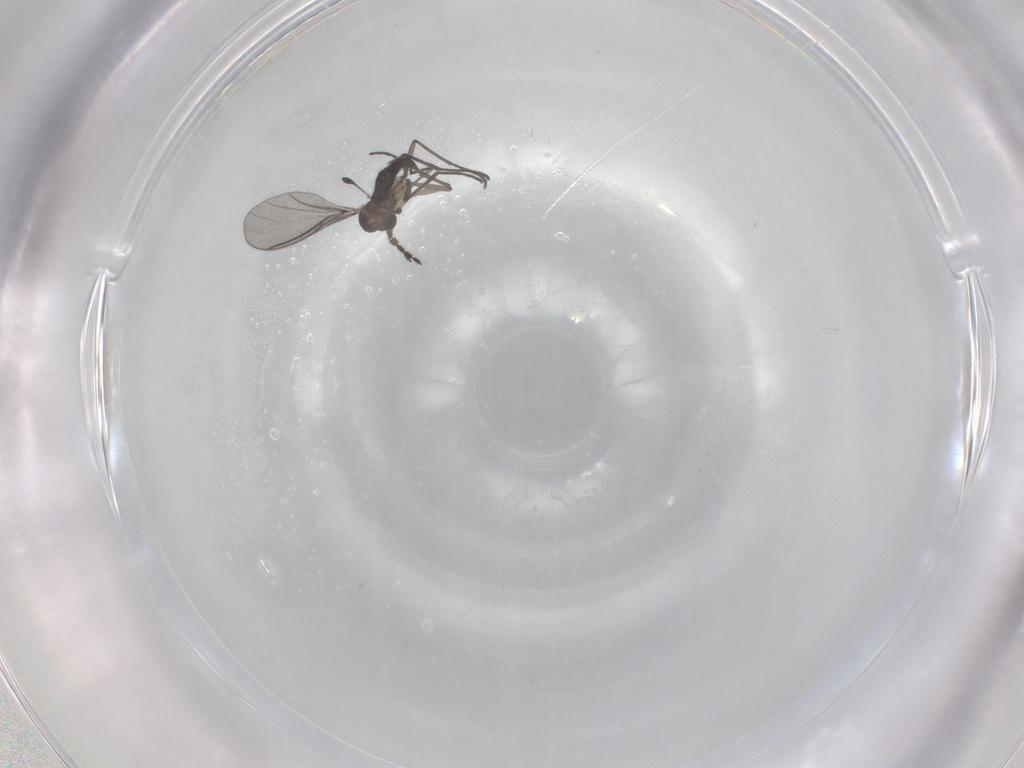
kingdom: Animalia
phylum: Arthropoda
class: Insecta
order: Diptera
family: Sciaridae
